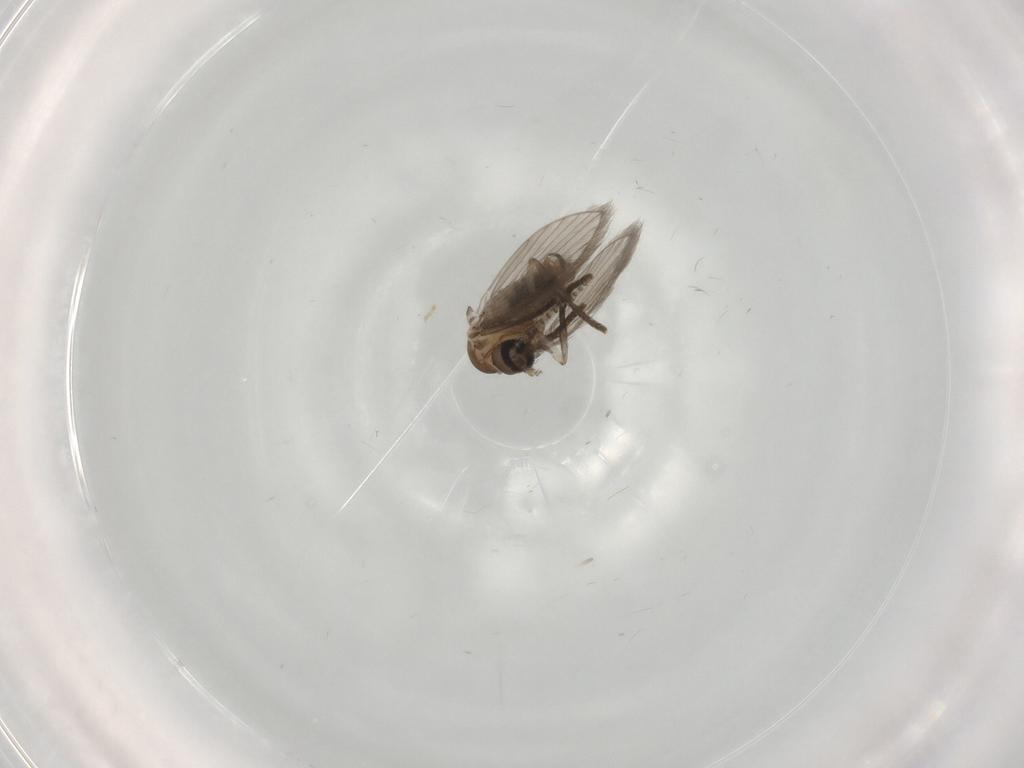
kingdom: Animalia
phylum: Arthropoda
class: Insecta
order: Diptera
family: Psychodidae
